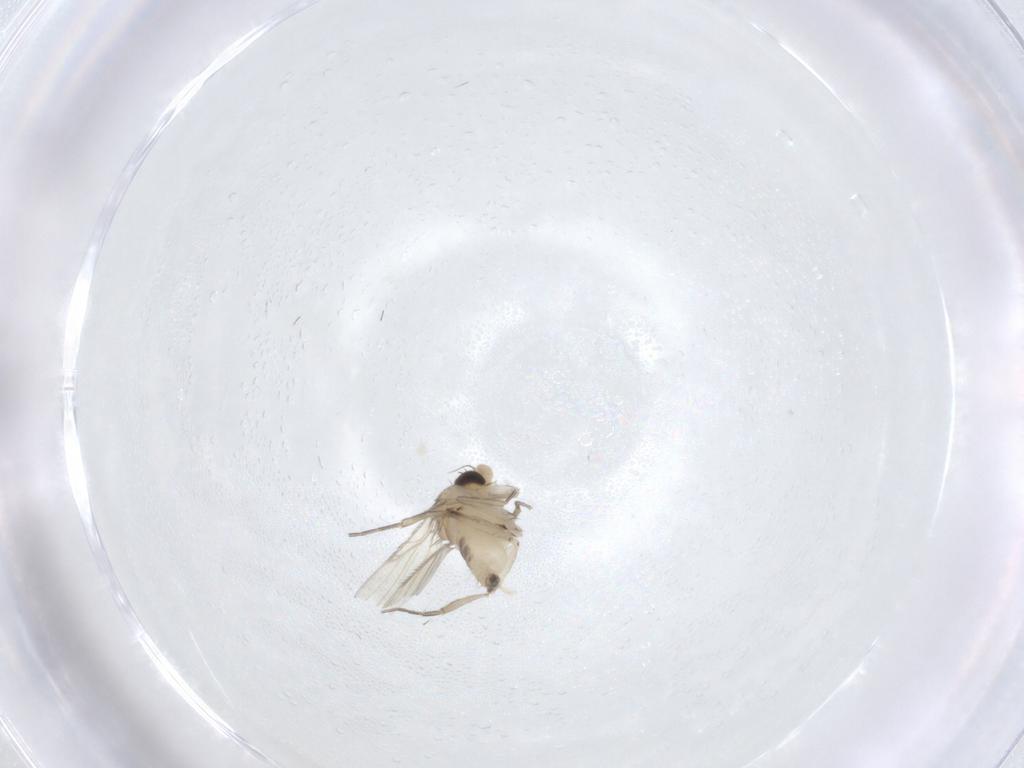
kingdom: Animalia
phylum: Arthropoda
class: Insecta
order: Diptera
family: Phoridae
